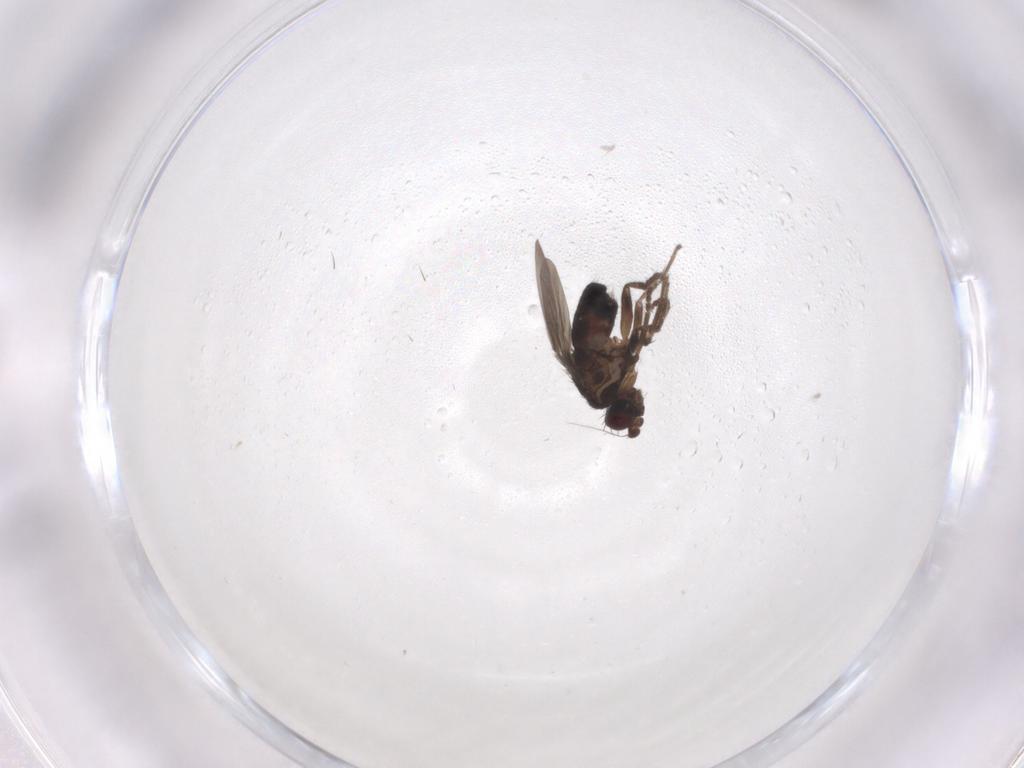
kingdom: Animalia
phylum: Arthropoda
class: Insecta
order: Diptera
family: Sphaeroceridae
